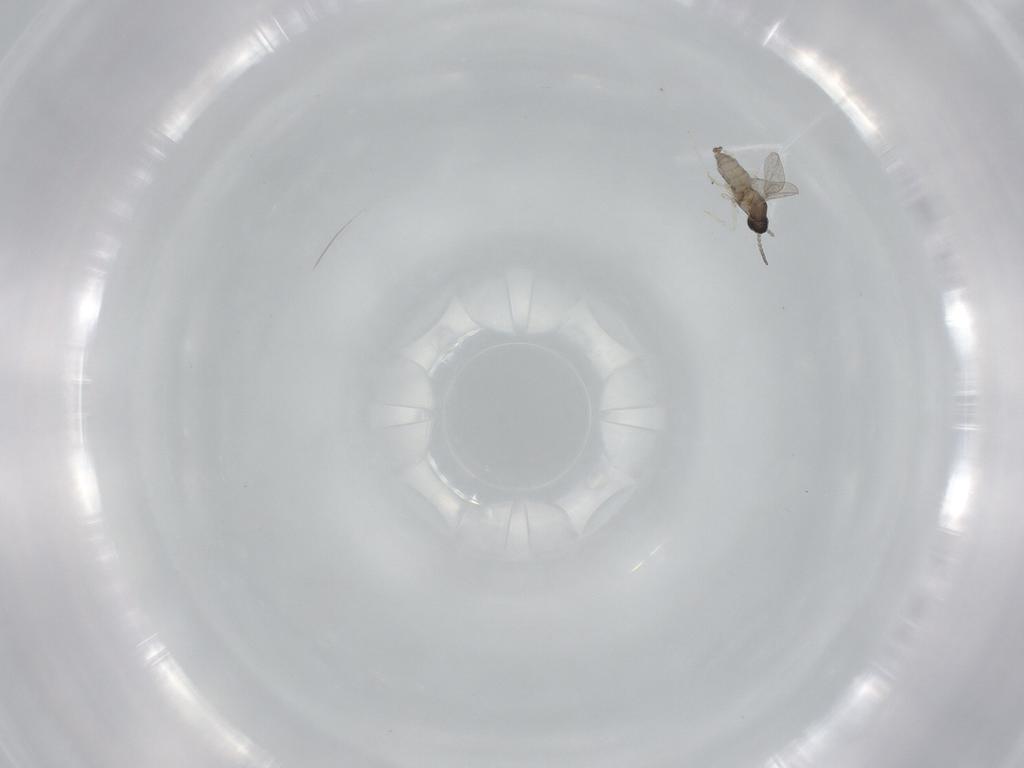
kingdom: Animalia
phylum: Arthropoda
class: Insecta
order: Diptera
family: Cecidomyiidae
